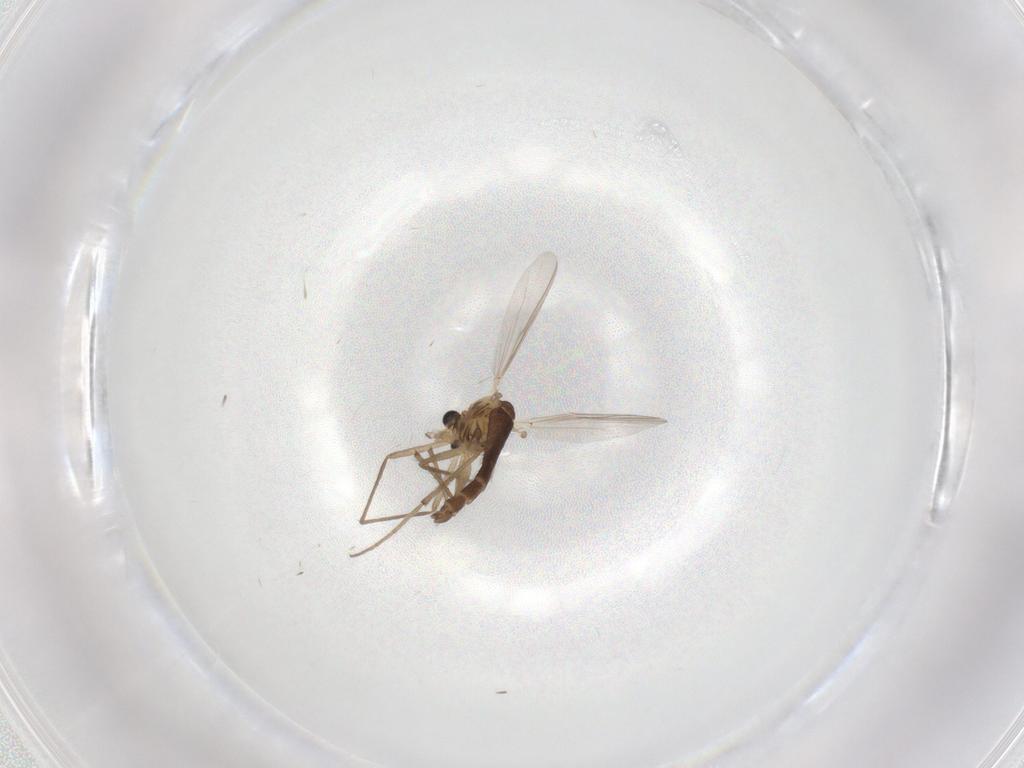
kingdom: Animalia
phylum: Arthropoda
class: Insecta
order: Diptera
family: Chironomidae
